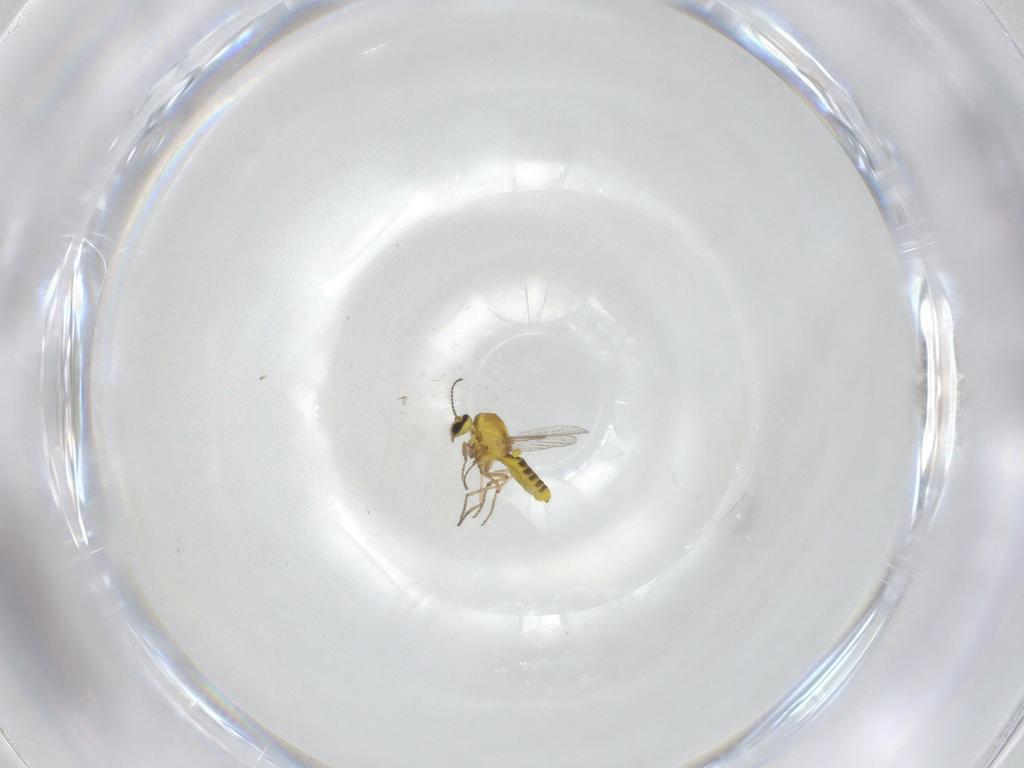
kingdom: Animalia
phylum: Arthropoda
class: Insecta
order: Diptera
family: Ceratopogonidae
